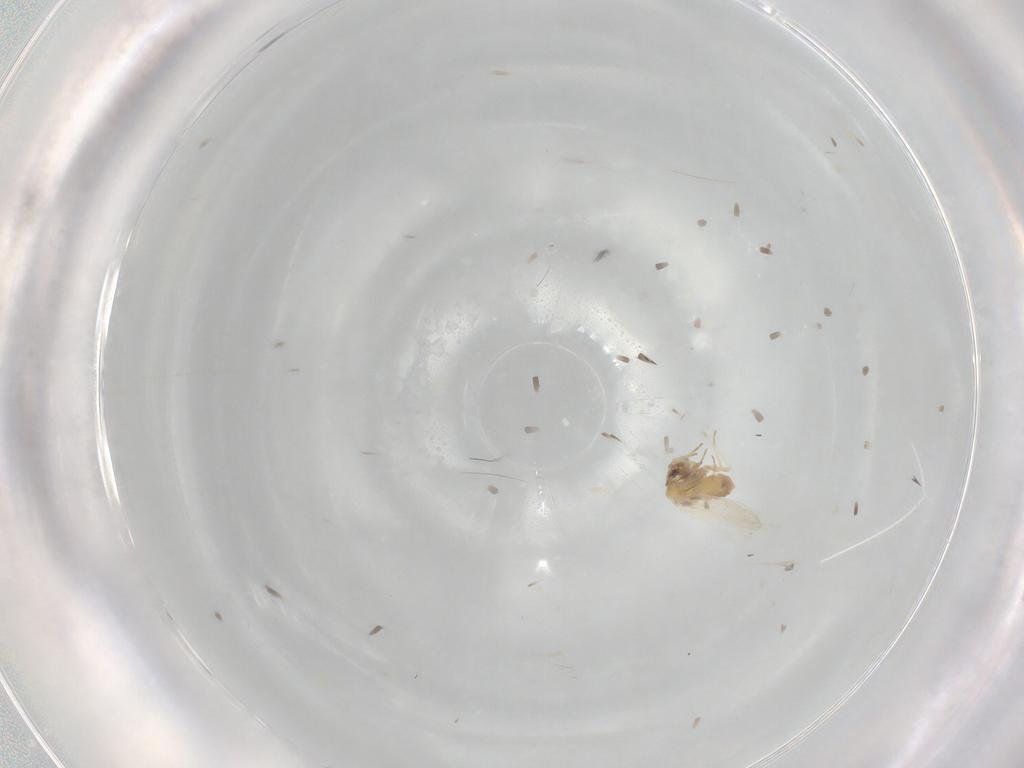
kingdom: Animalia
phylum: Arthropoda
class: Insecta
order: Hemiptera
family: Aleyrodidae
